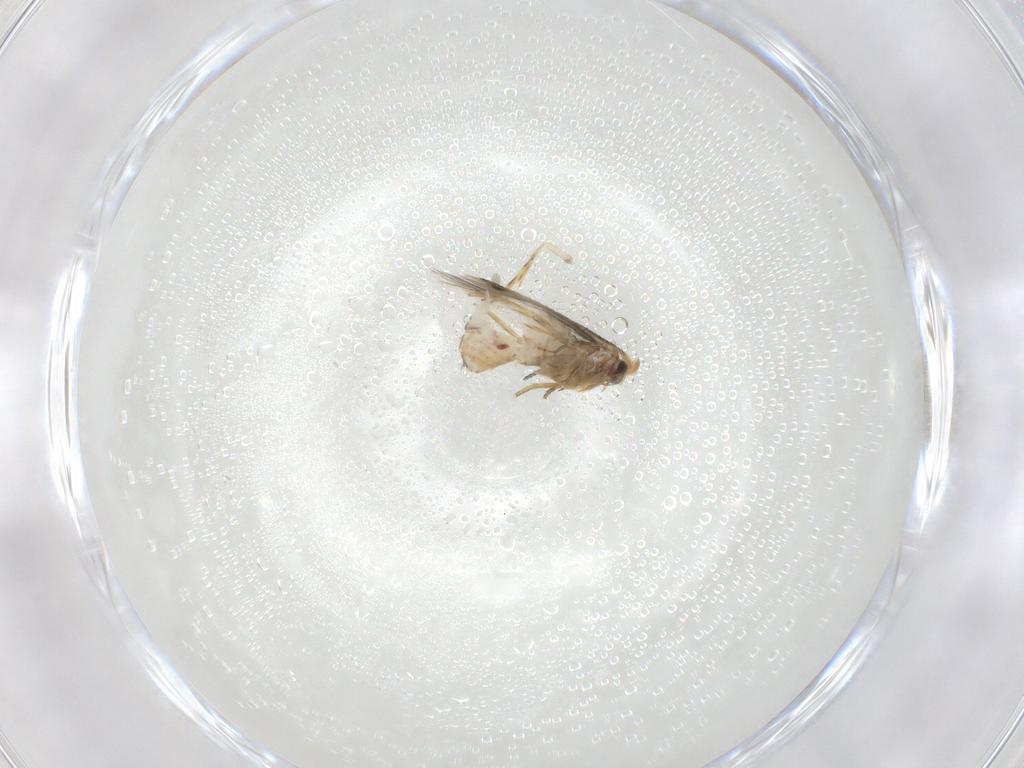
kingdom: Animalia
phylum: Arthropoda
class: Insecta
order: Lepidoptera
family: Nepticulidae
